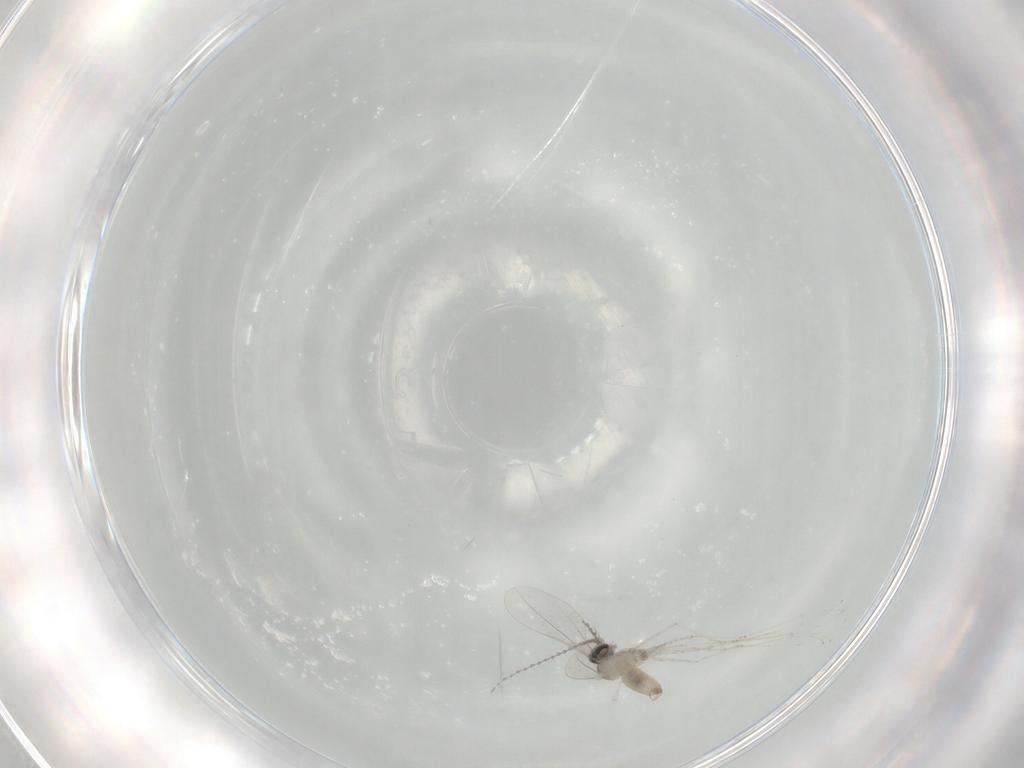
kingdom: Animalia
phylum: Arthropoda
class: Insecta
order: Diptera
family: Cecidomyiidae
